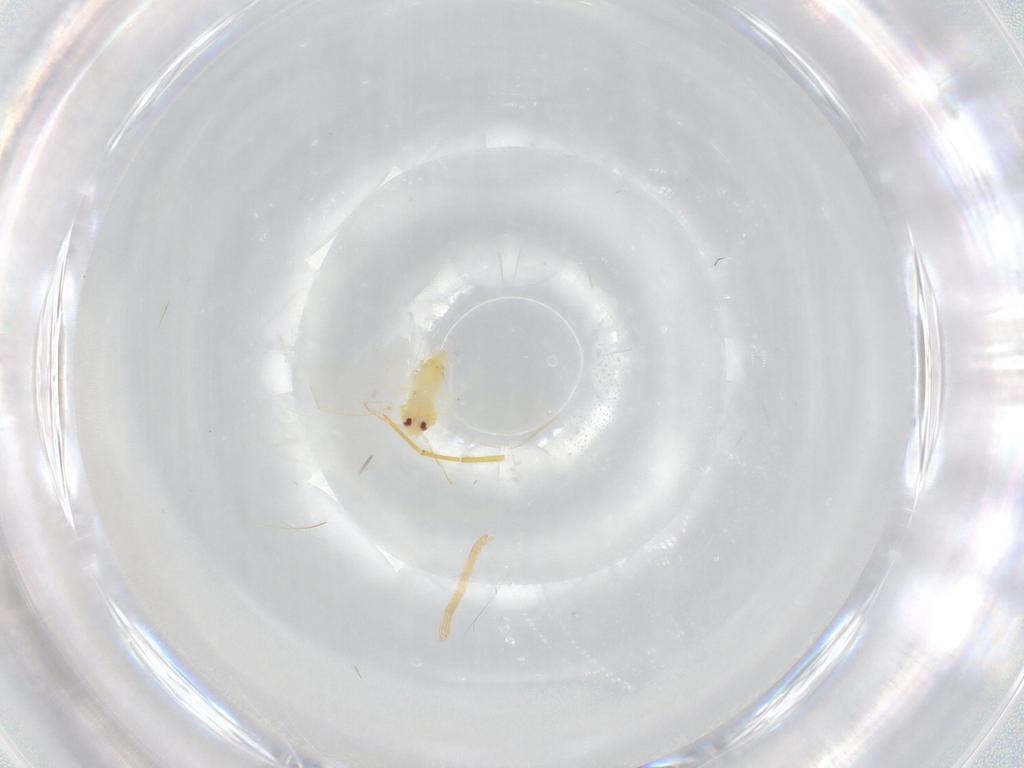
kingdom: Animalia
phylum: Arthropoda
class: Insecta
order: Hemiptera
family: Aleyrodidae
